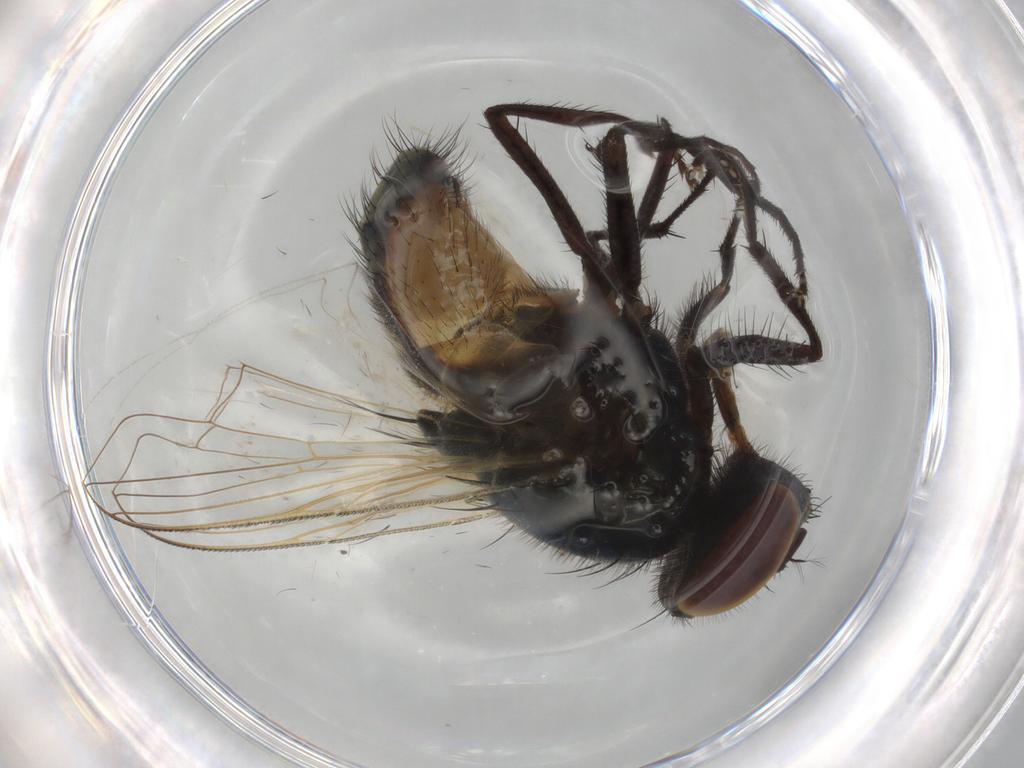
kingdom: Animalia
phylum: Arthropoda
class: Insecta
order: Diptera
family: Muscidae
